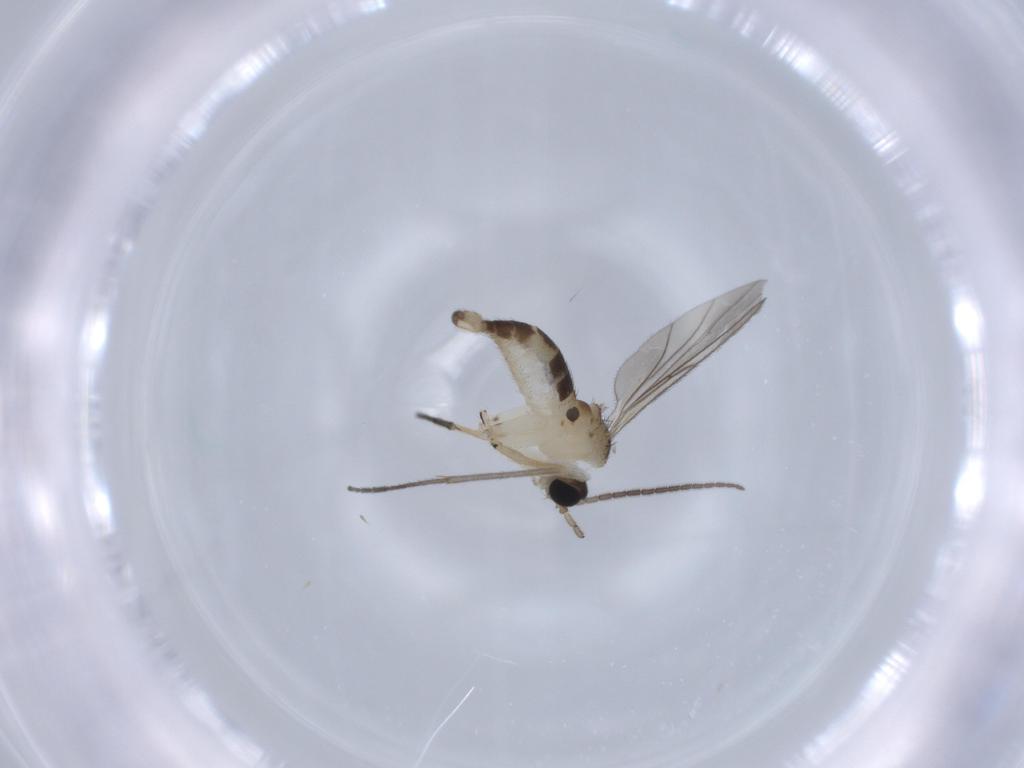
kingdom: Animalia
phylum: Arthropoda
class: Insecta
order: Diptera
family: Sciaridae
